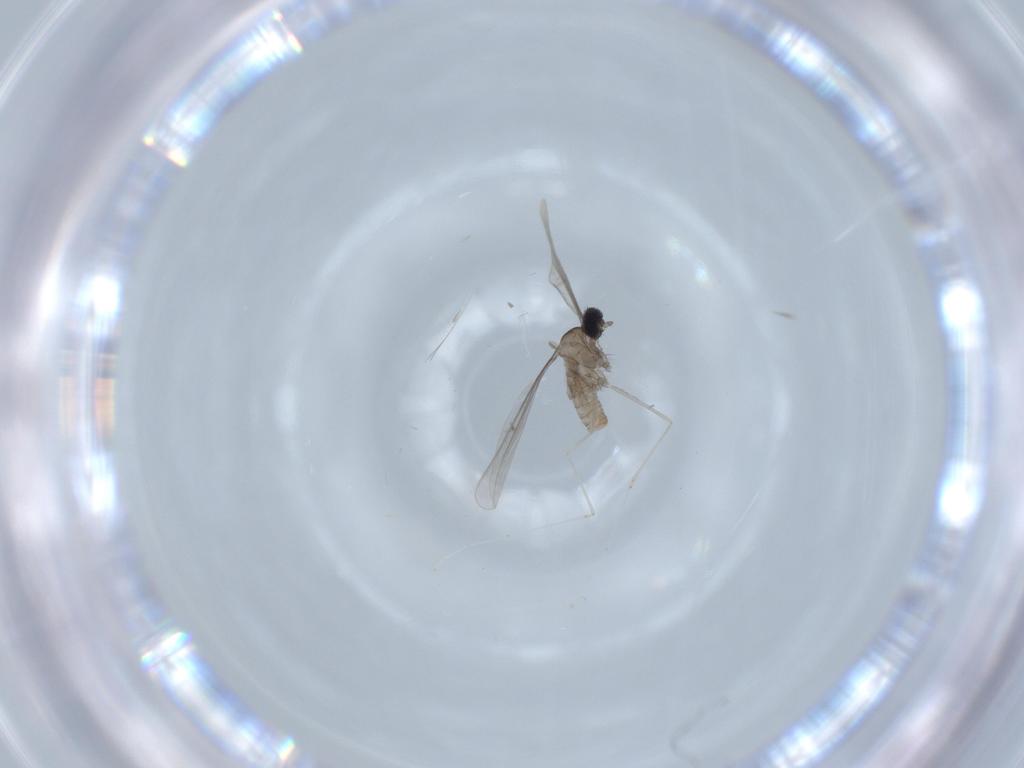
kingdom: Animalia
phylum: Arthropoda
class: Insecta
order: Diptera
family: Cecidomyiidae
